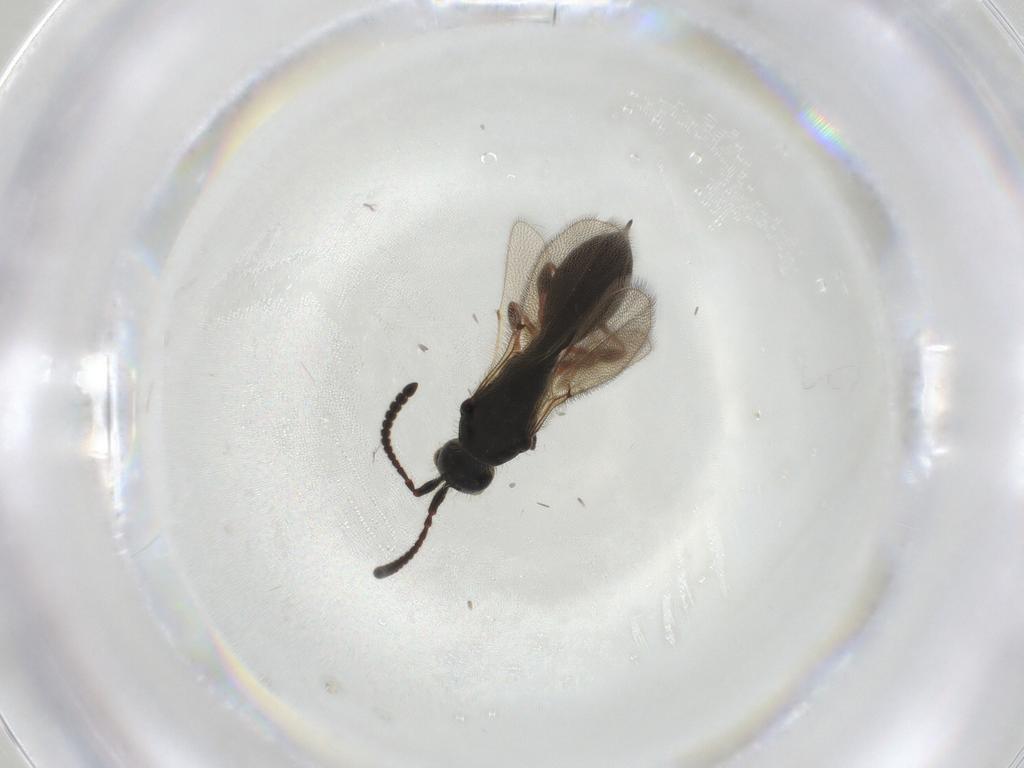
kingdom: Animalia
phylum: Arthropoda
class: Insecta
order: Hymenoptera
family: Diapriidae
